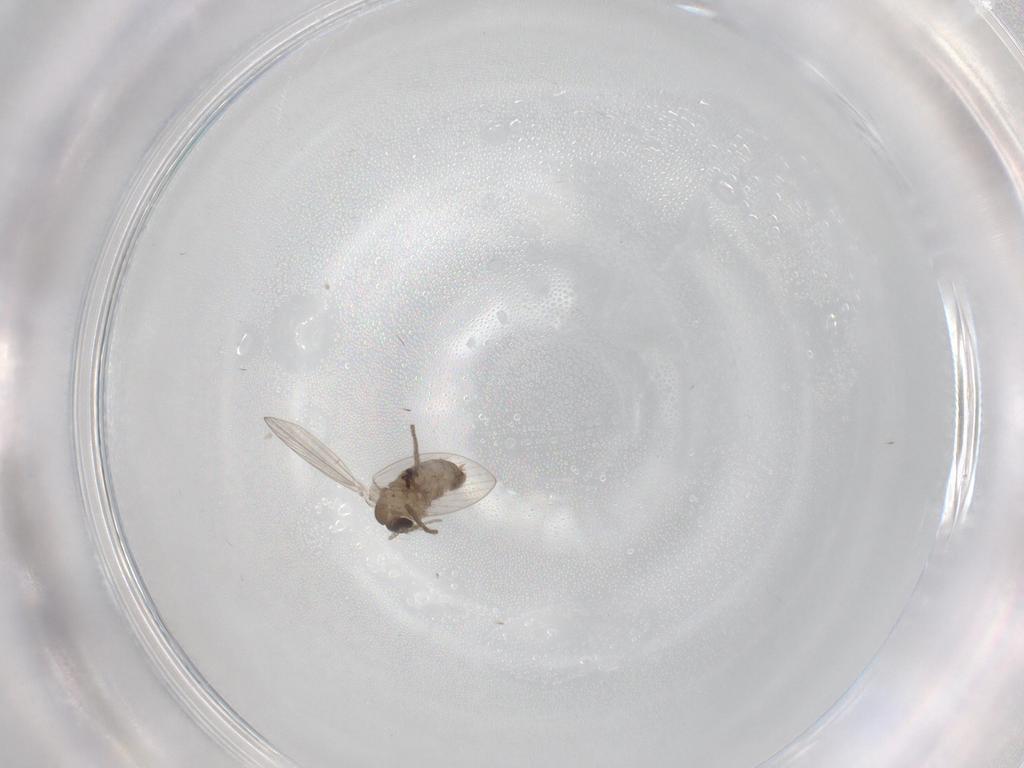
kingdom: Animalia
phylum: Arthropoda
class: Insecta
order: Diptera
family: Psychodidae
